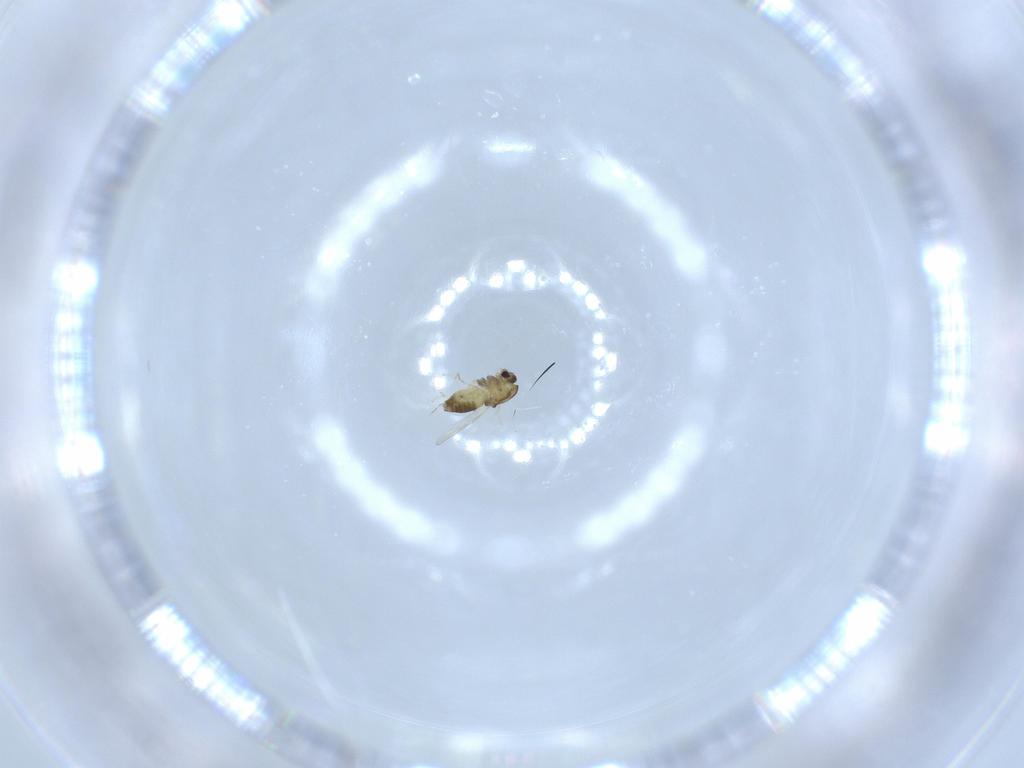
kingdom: Animalia
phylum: Arthropoda
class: Insecta
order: Diptera
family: Chironomidae
